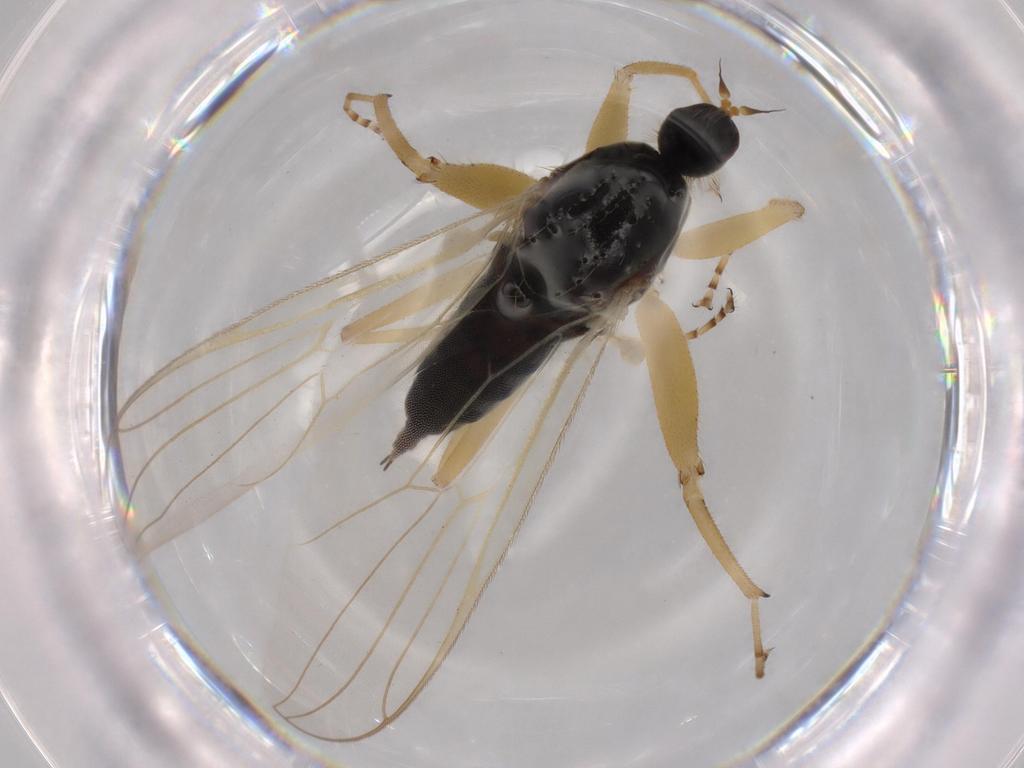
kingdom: Animalia
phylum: Arthropoda
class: Insecta
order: Diptera
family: Hybotidae
